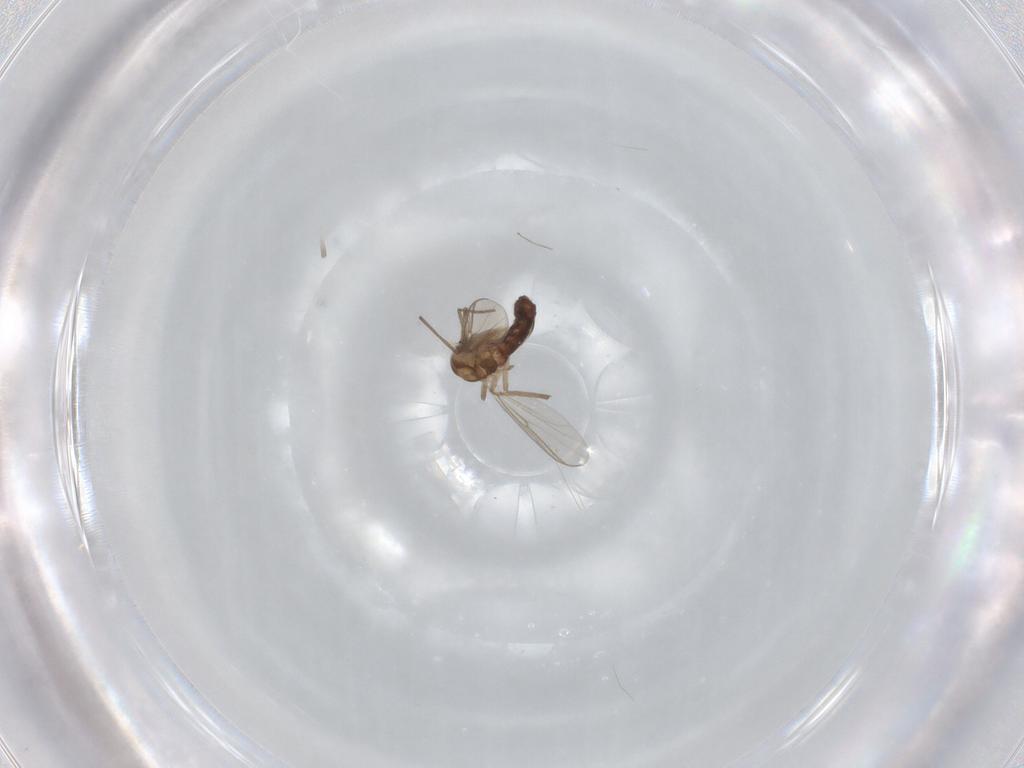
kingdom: Animalia
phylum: Arthropoda
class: Insecta
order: Diptera
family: Cecidomyiidae
